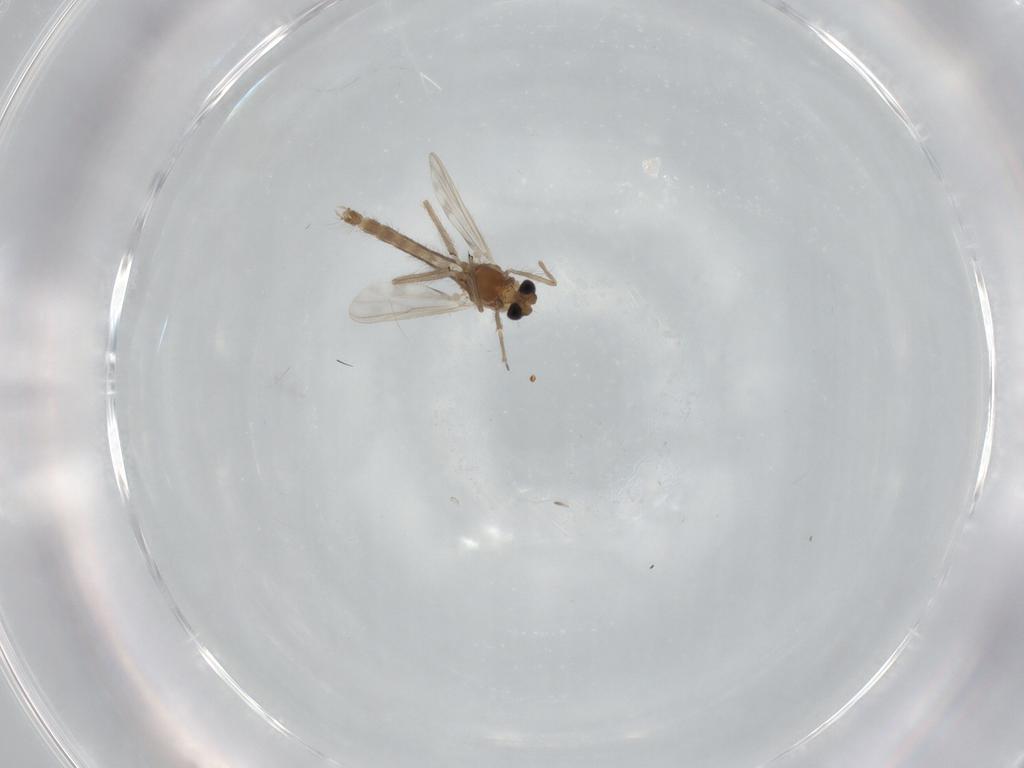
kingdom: Animalia
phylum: Arthropoda
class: Insecta
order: Diptera
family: Chironomidae
